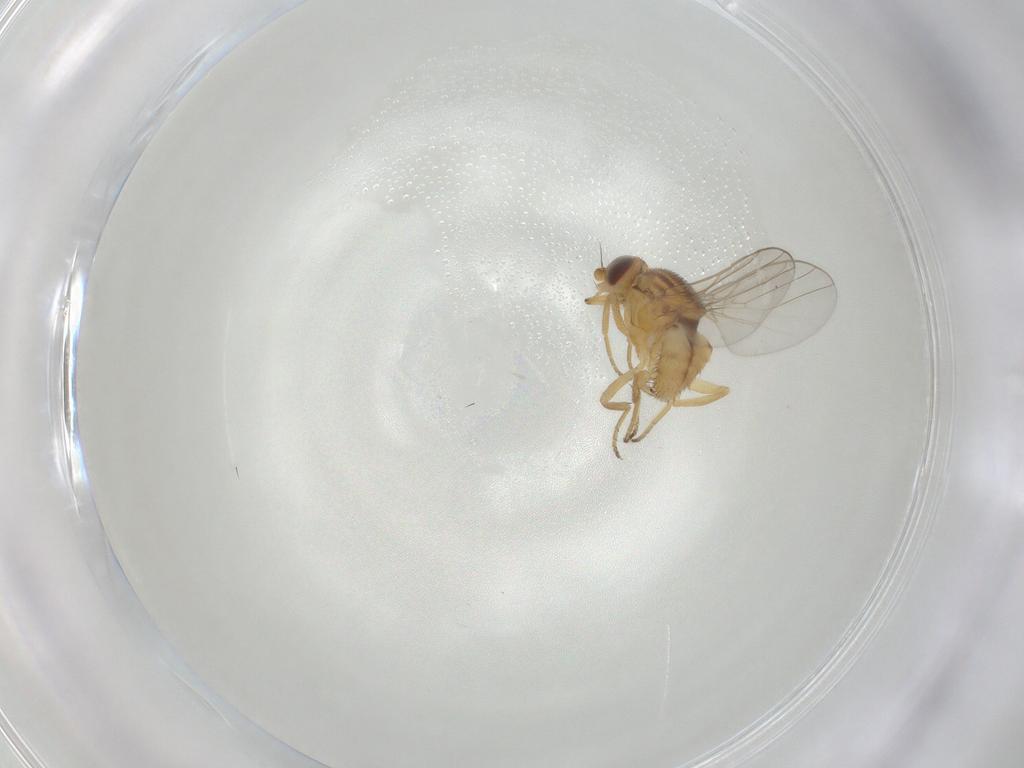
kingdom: Animalia
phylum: Arthropoda
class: Insecta
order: Diptera
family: Chloropidae
